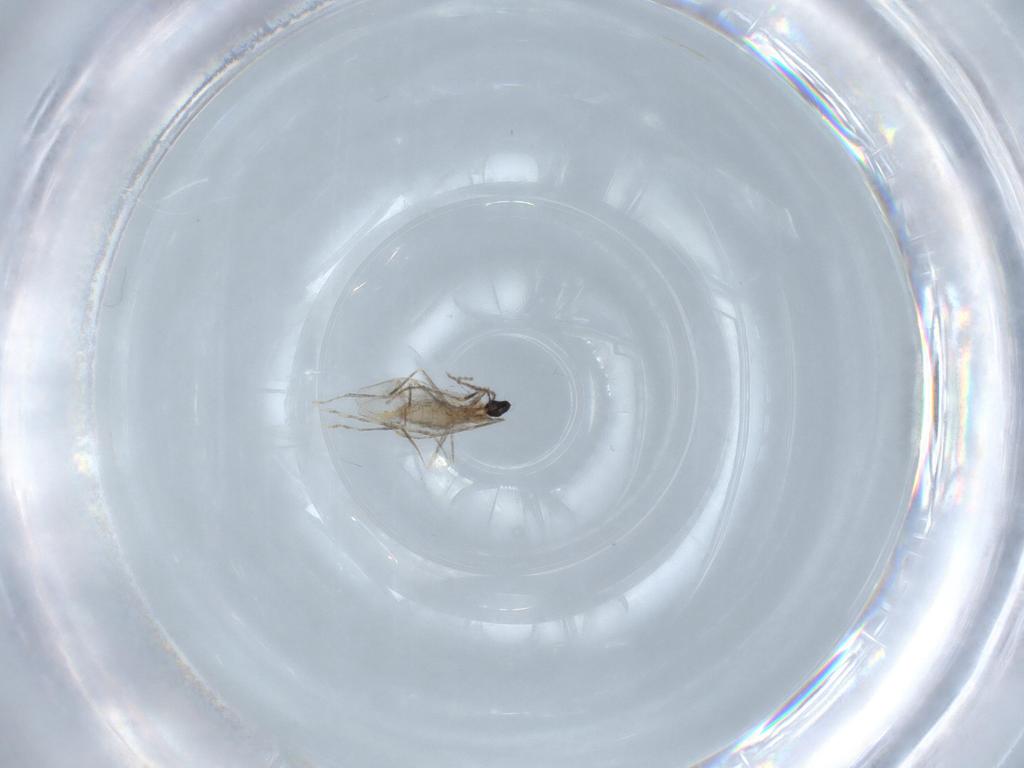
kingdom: Animalia
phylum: Arthropoda
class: Insecta
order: Diptera
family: Cecidomyiidae
